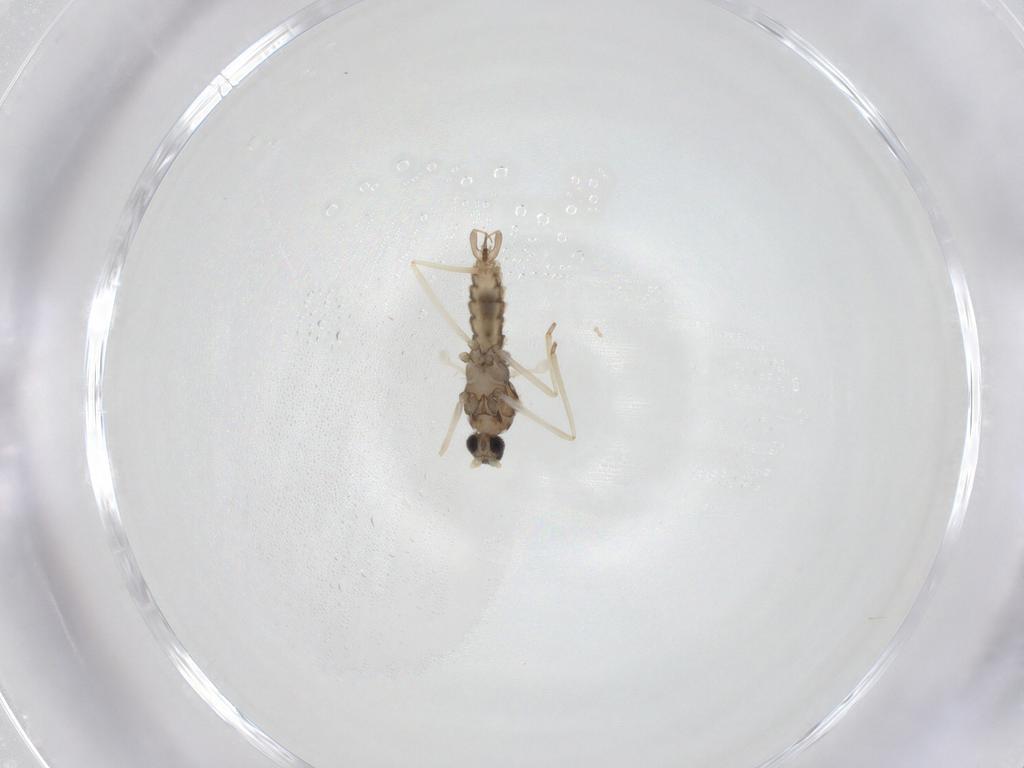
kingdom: Animalia
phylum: Arthropoda
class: Insecta
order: Diptera
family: Cecidomyiidae
